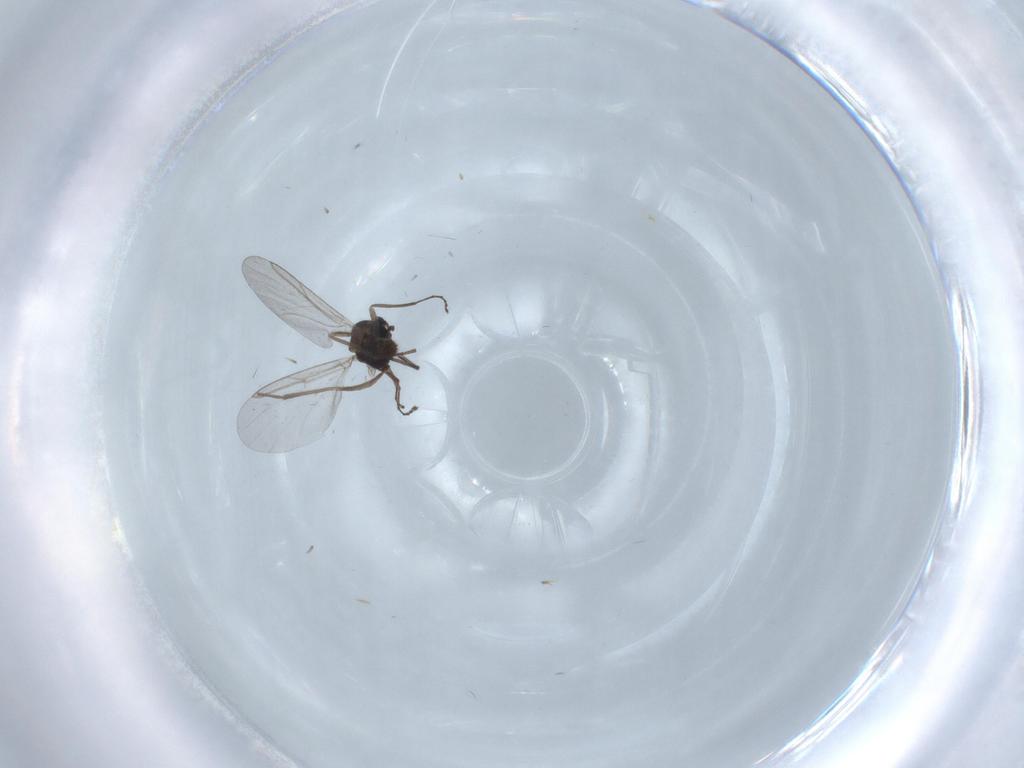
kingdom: Animalia
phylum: Arthropoda
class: Insecta
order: Diptera
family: Cecidomyiidae
